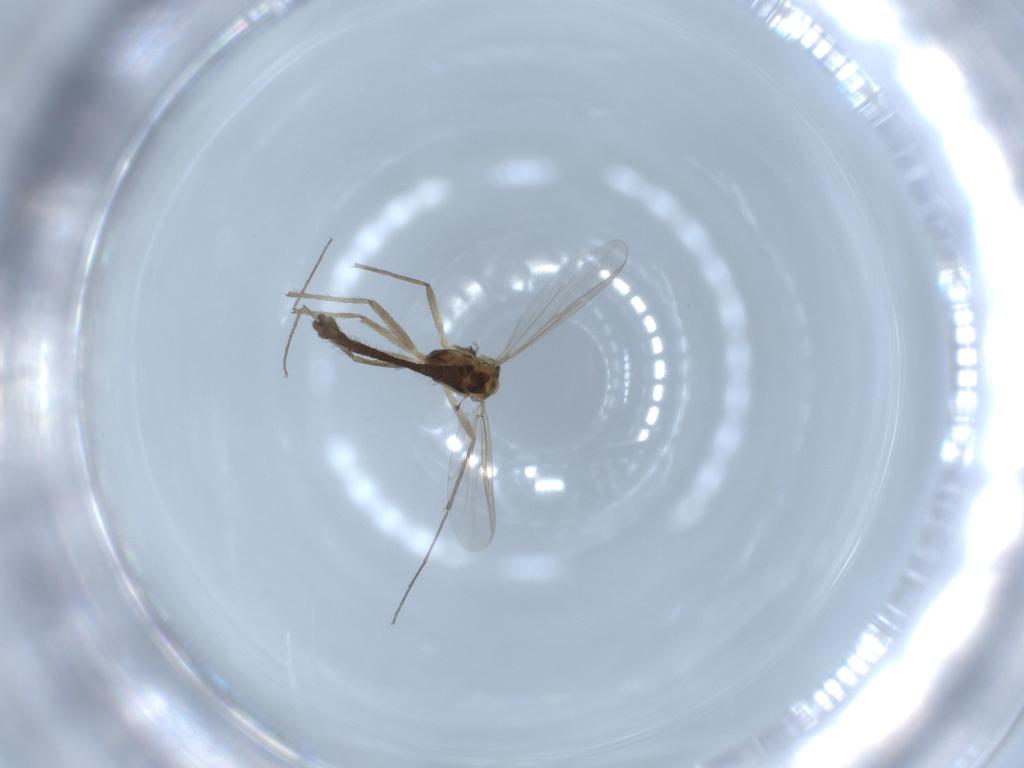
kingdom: Animalia
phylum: Arthropoda
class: Insecta
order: Diptera
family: Chironomidae
